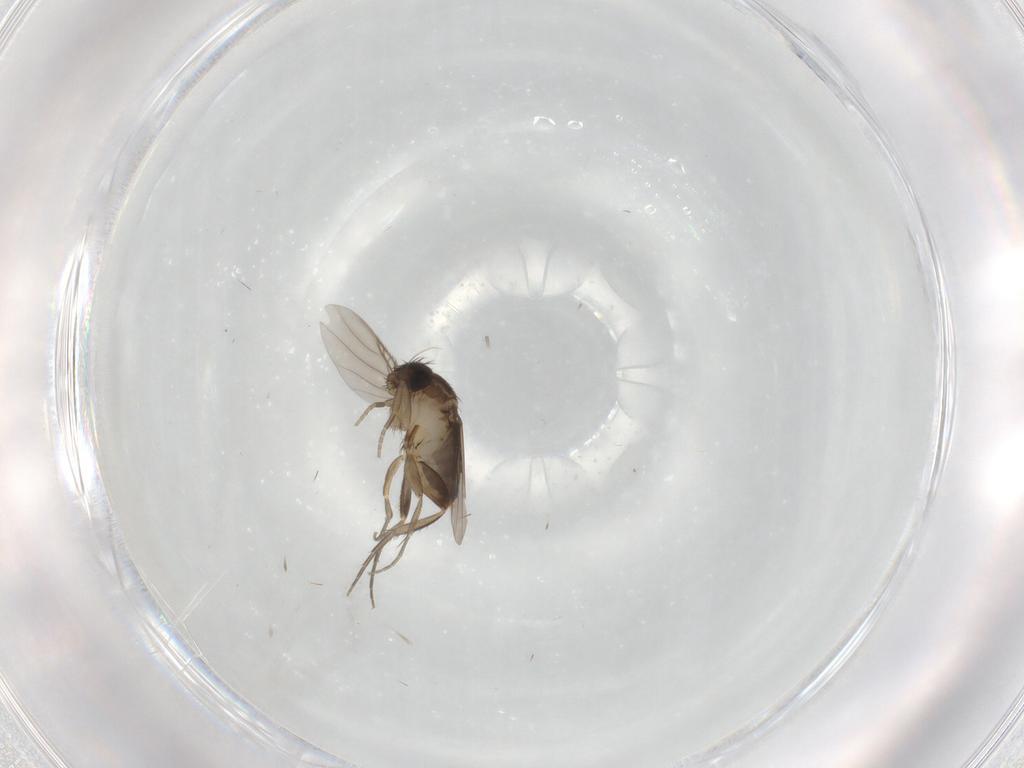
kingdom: Animalia
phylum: Arthropoda
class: Insecta
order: Diptera
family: Phoridae
